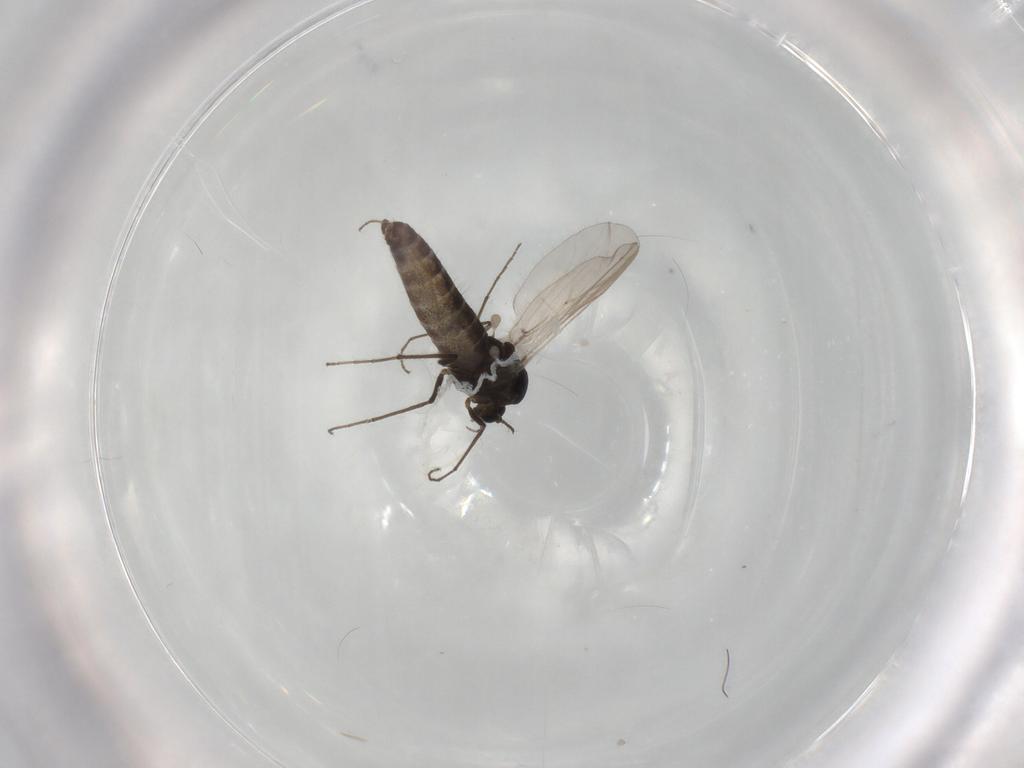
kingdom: Animalia
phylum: Arthropoda
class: Insecta
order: Diptera
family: Chironomidae
